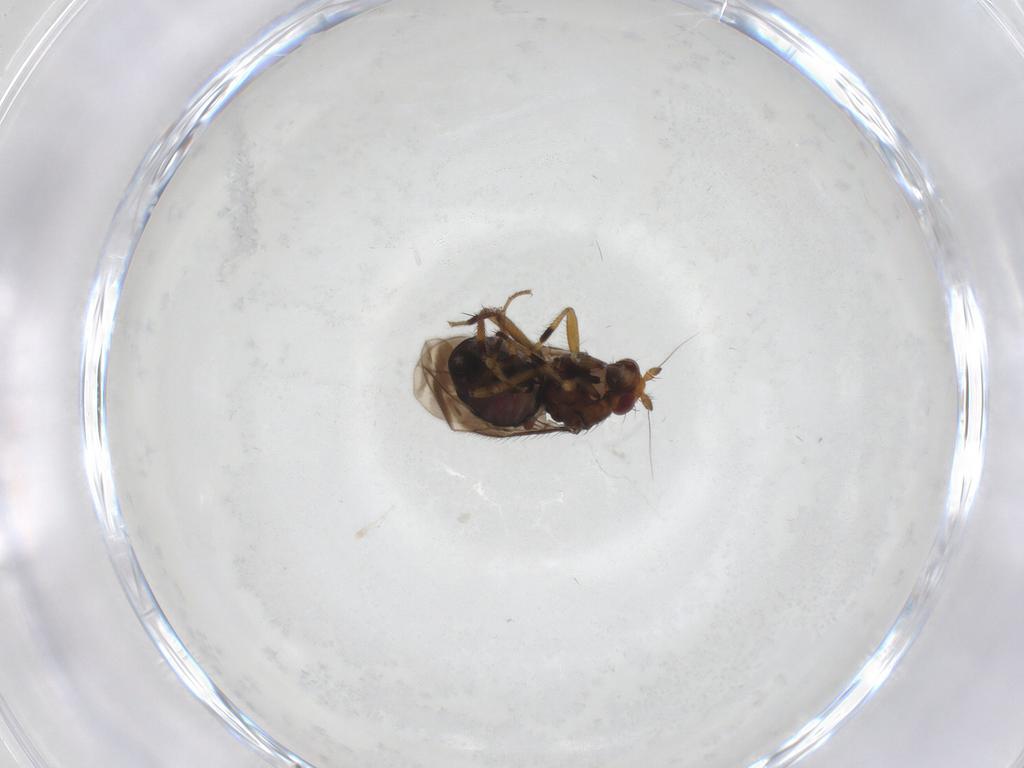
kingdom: Animalia
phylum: Arthropoda
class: Insecta
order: Diptera
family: Sphaeroceridae
